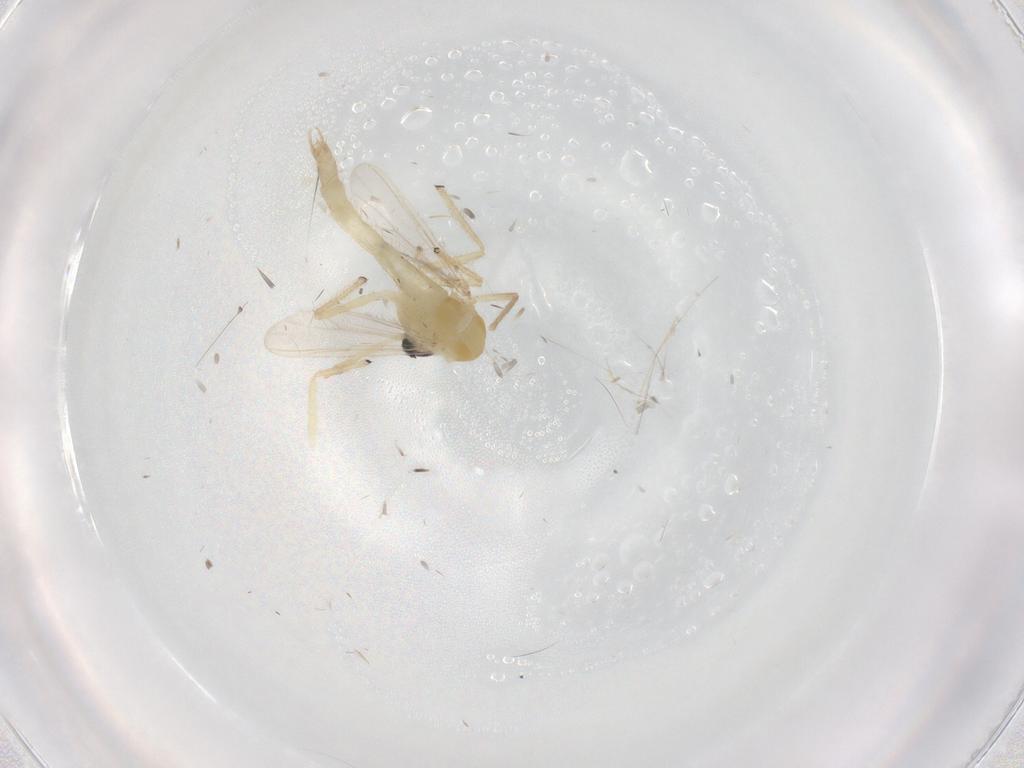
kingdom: Animalia
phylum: Arthropoda
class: Insecta
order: Diptera
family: Chironomidae
